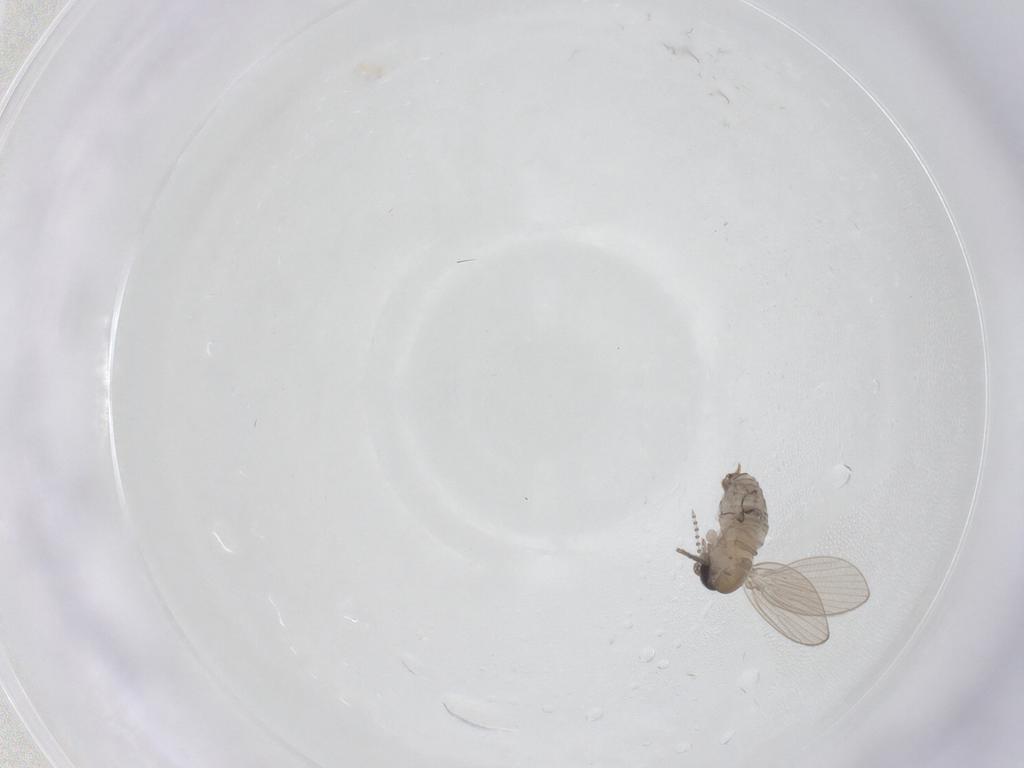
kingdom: Animalia
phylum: Arthropoda
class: Insecta
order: Diptera
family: Psychodidae
